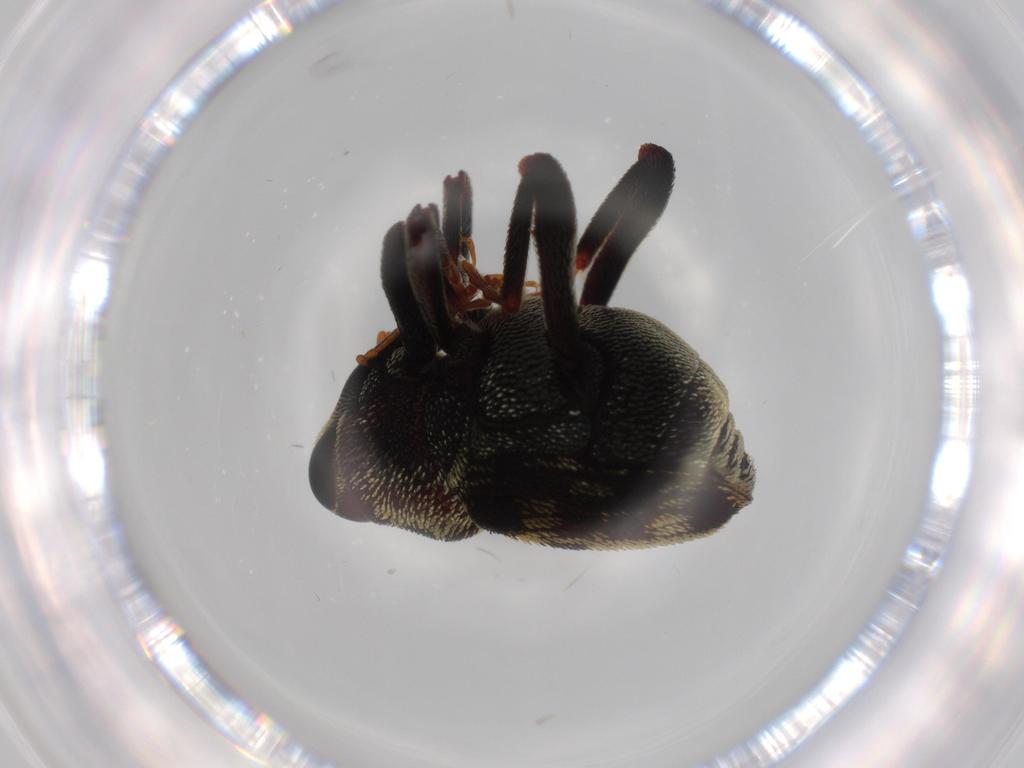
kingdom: Animalia
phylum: Arthropoda
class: Insecta
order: Coleoptera
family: Curculionidae
